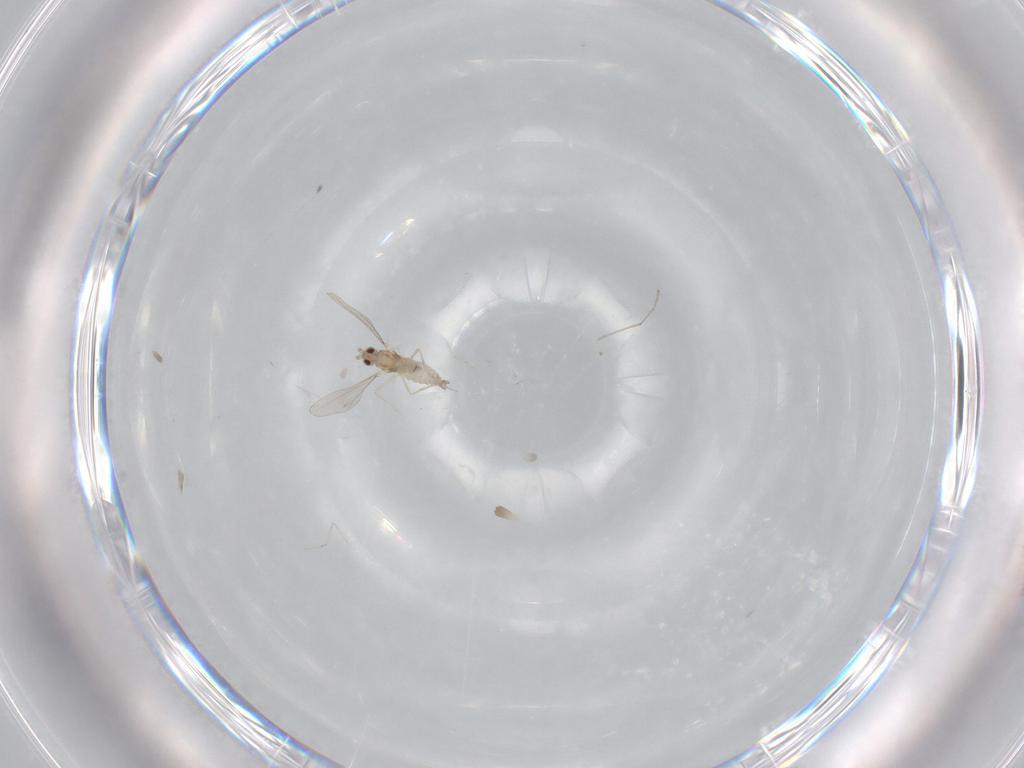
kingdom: Animalia
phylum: Arthropoda
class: Insecta
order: Diptera
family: Cecidomyiidae
